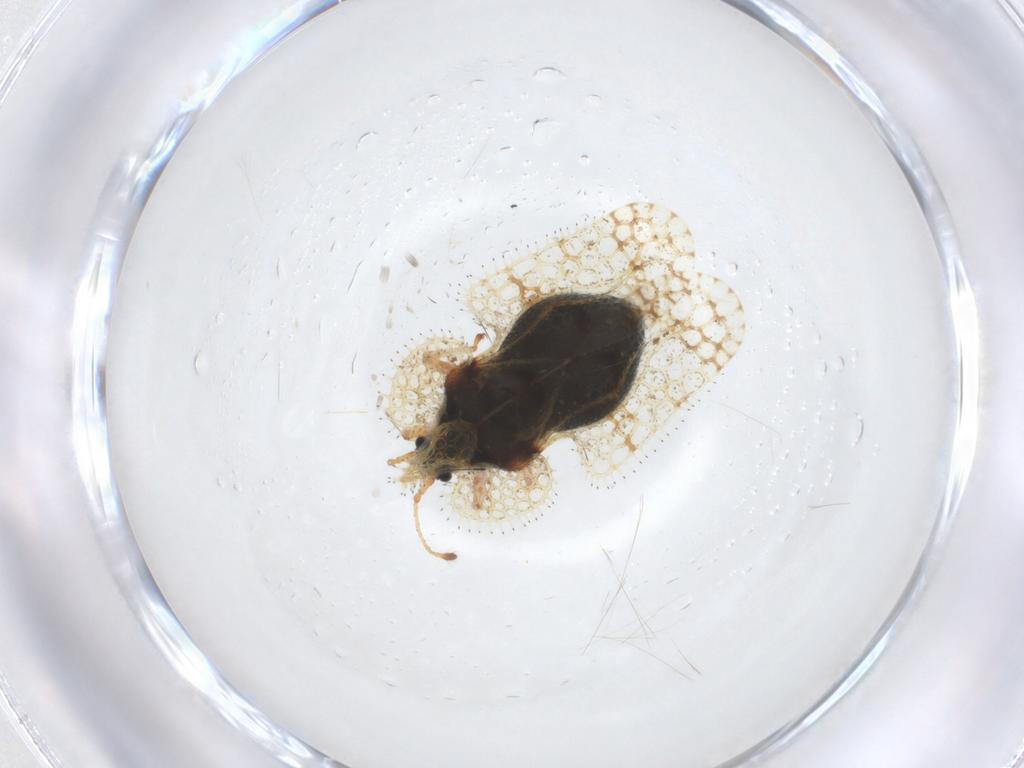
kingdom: Animalia
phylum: Arthropoda
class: Insecta
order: Hemiptera
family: Tingidae
